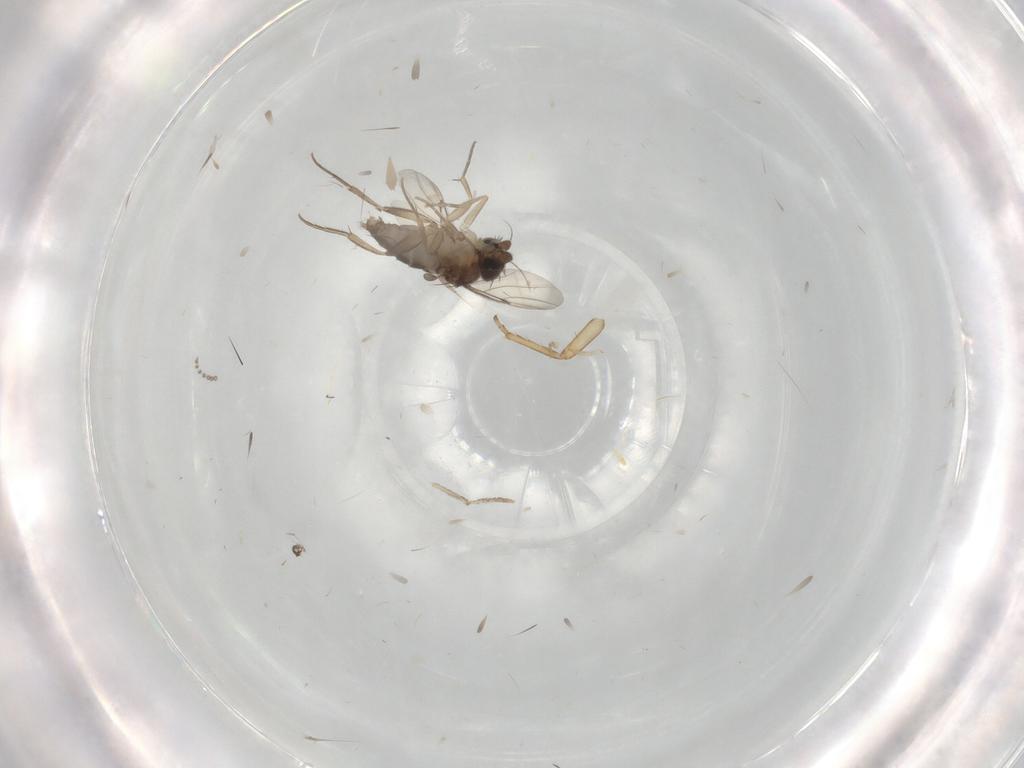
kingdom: Animalia
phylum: Arthropoda
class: Insecta
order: Diptera
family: Phoridae
